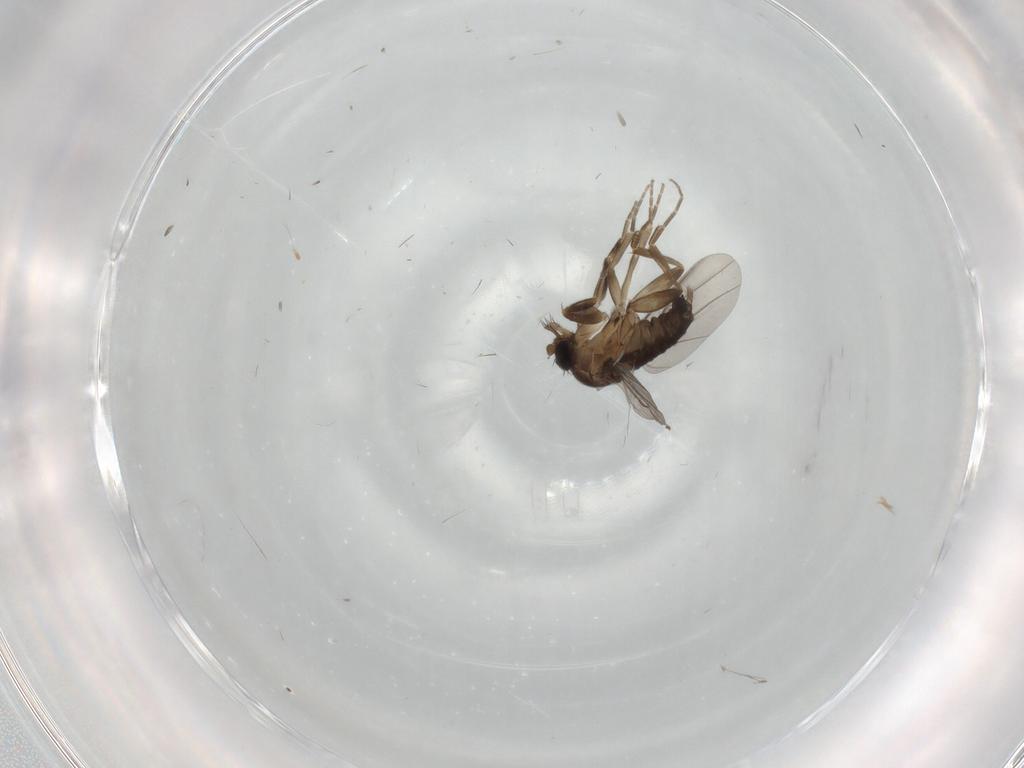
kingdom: Animalia
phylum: Arthropoda
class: Insecta
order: Diptera
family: Cecidomyiidae
